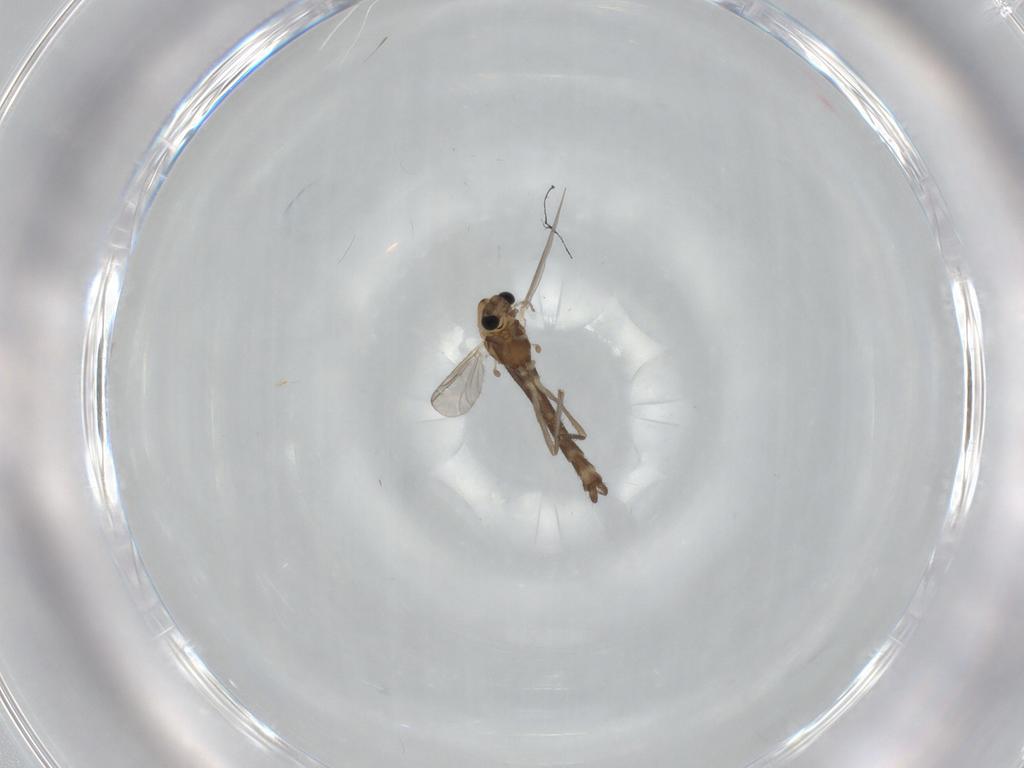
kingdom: Animalia
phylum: Arthropoda
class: Insecta
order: Diptera
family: Chironomidae
